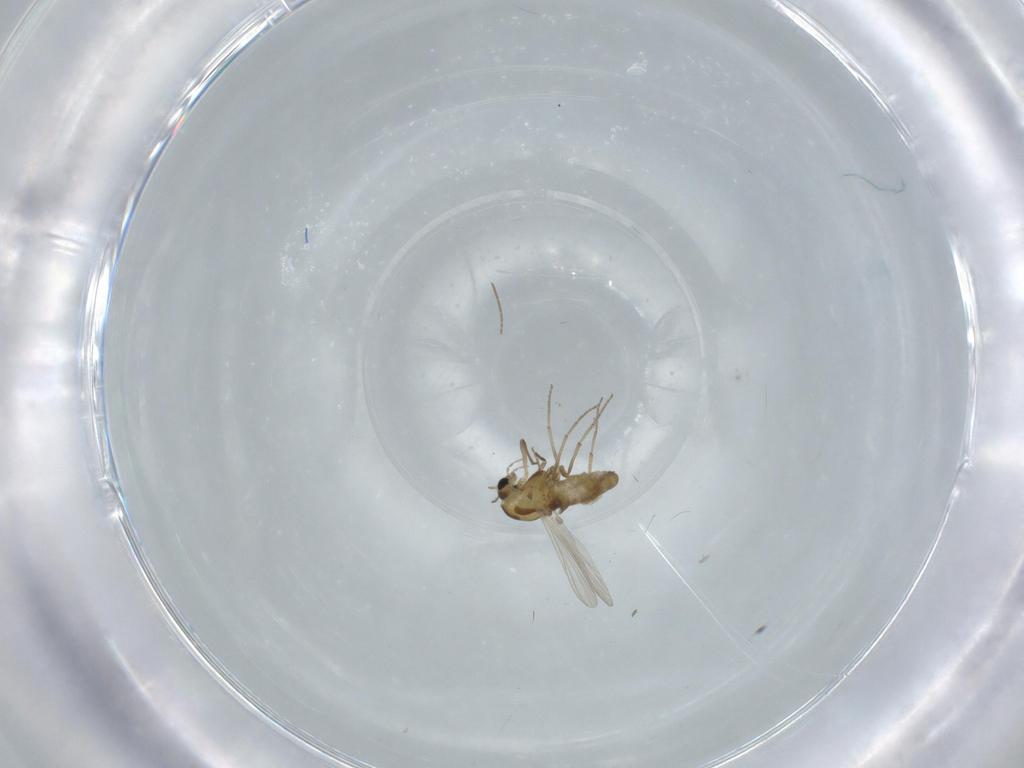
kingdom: Animalia
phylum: Arthropoda
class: Insecta
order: Diptera
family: Chironomidae
